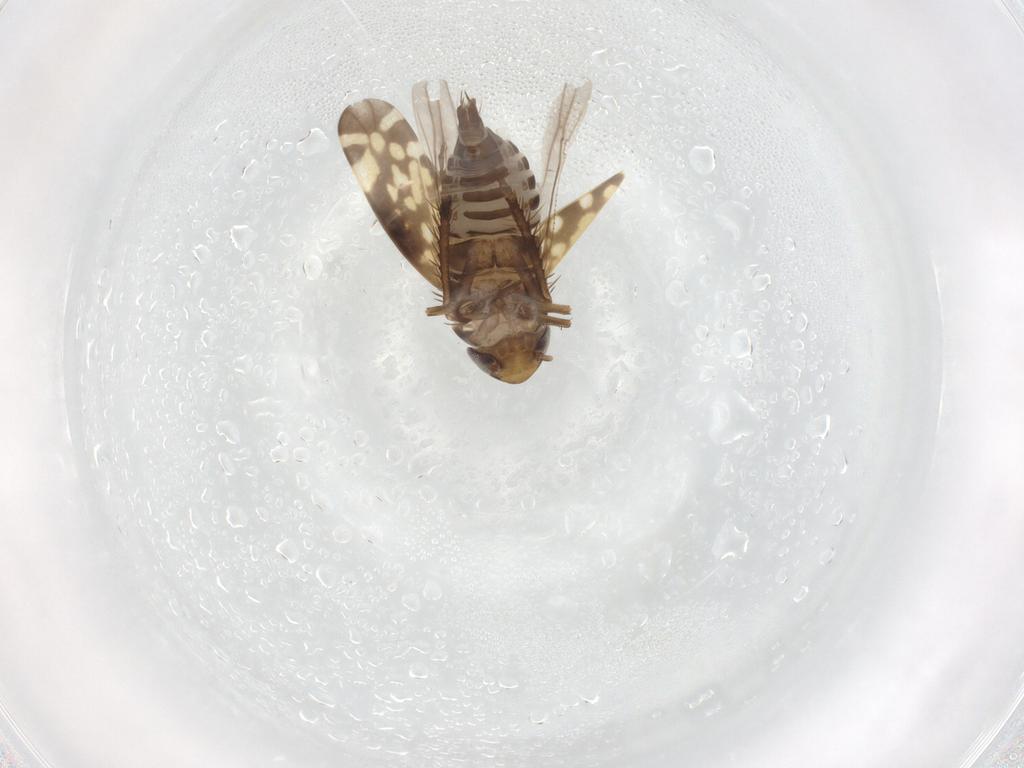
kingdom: Animalia
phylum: Arthropoda
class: Insecta
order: Hemiptera
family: Cicadellidae
